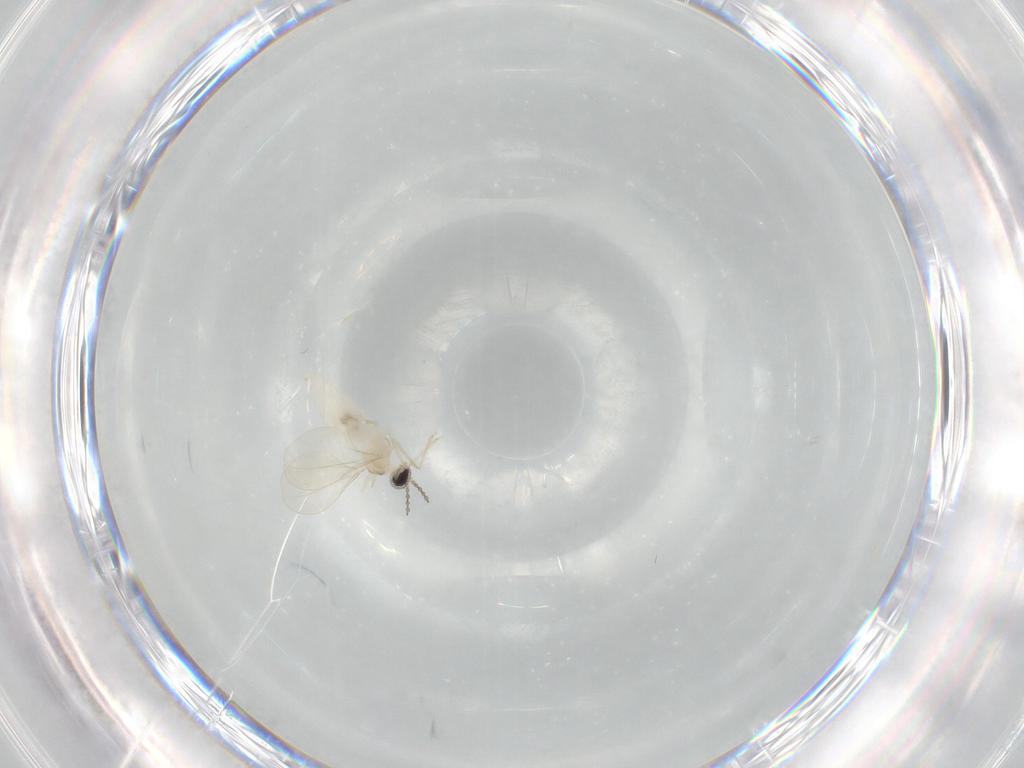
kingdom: Animalia
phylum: Arthropoda
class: Insecta
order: Diptera
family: Cecidomyiidae
